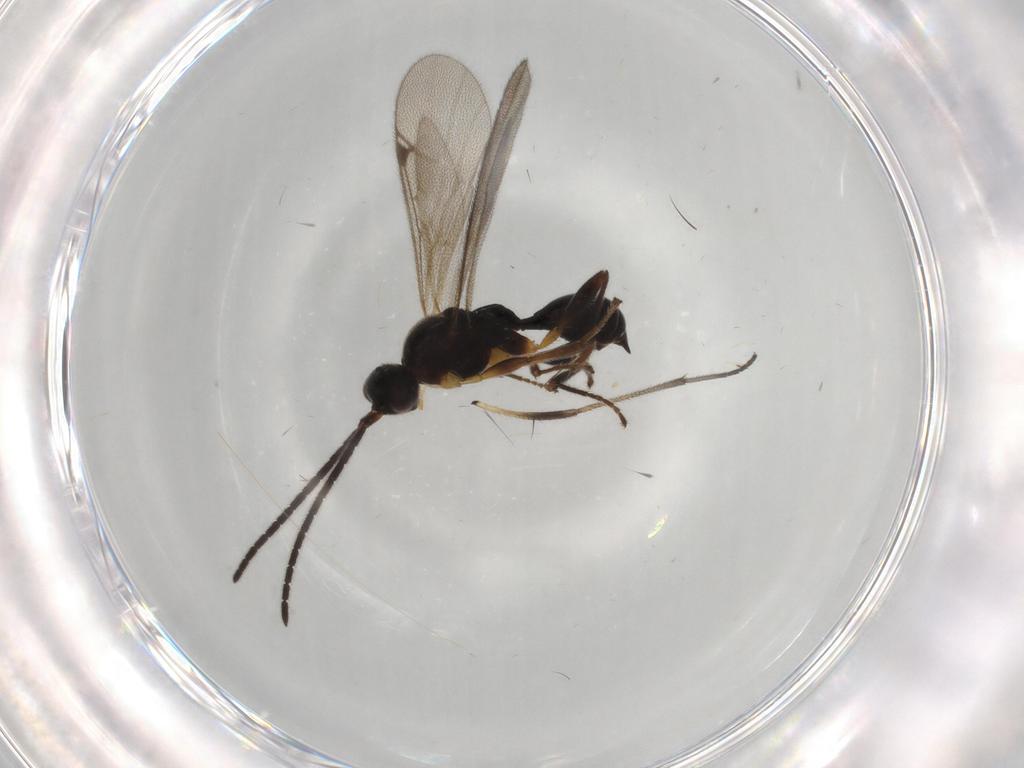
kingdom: Animalia
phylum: Arthropoda
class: Insecta
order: Hymenoptera
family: Proctotrupidae
